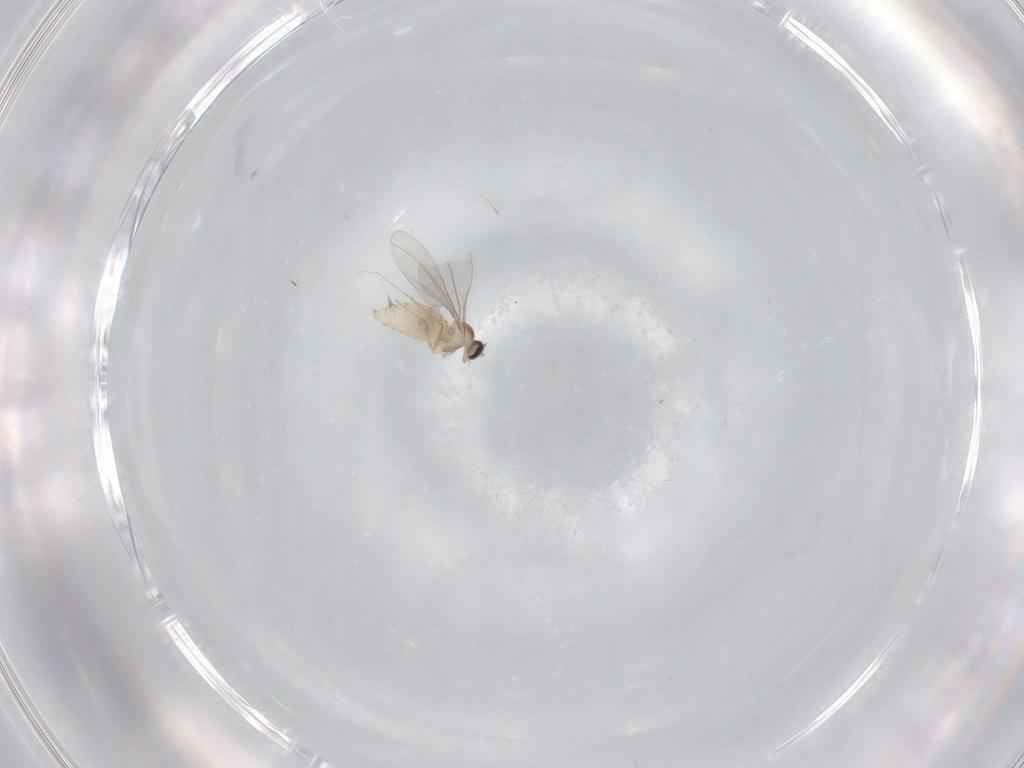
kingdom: Animalia
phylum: Arthropoda
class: Insecta
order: Diptera
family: Cecidomyiidae
